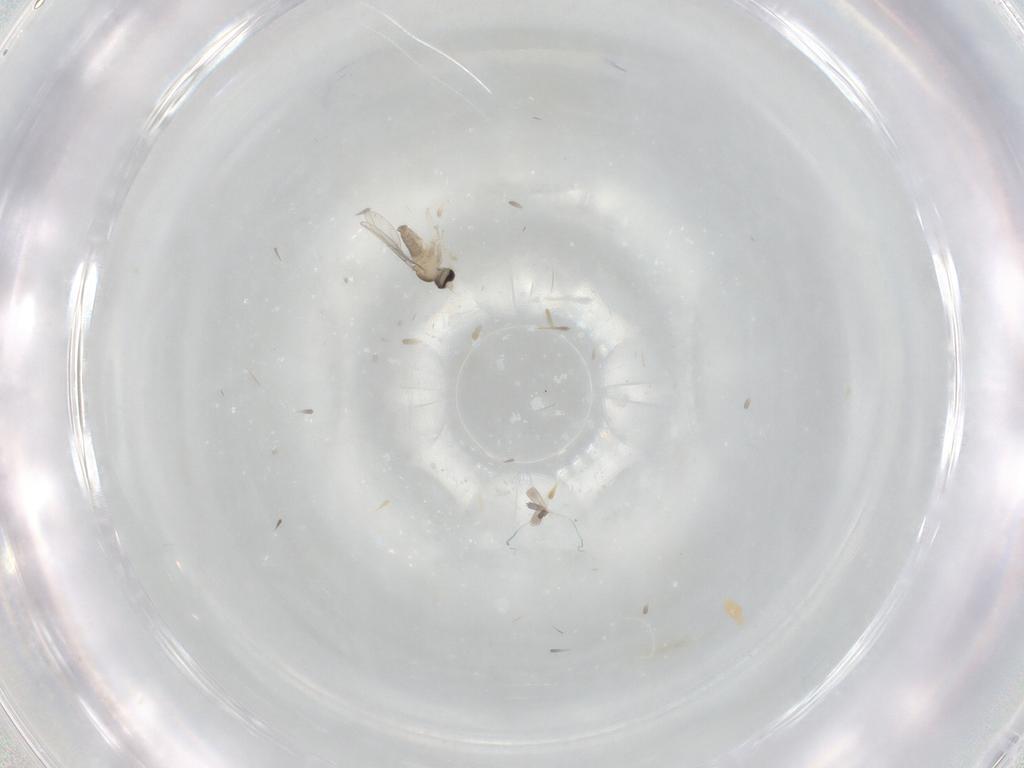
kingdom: Animalia
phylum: Arthropoda
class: Insecta
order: Diptera
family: Cecidomyiidae
